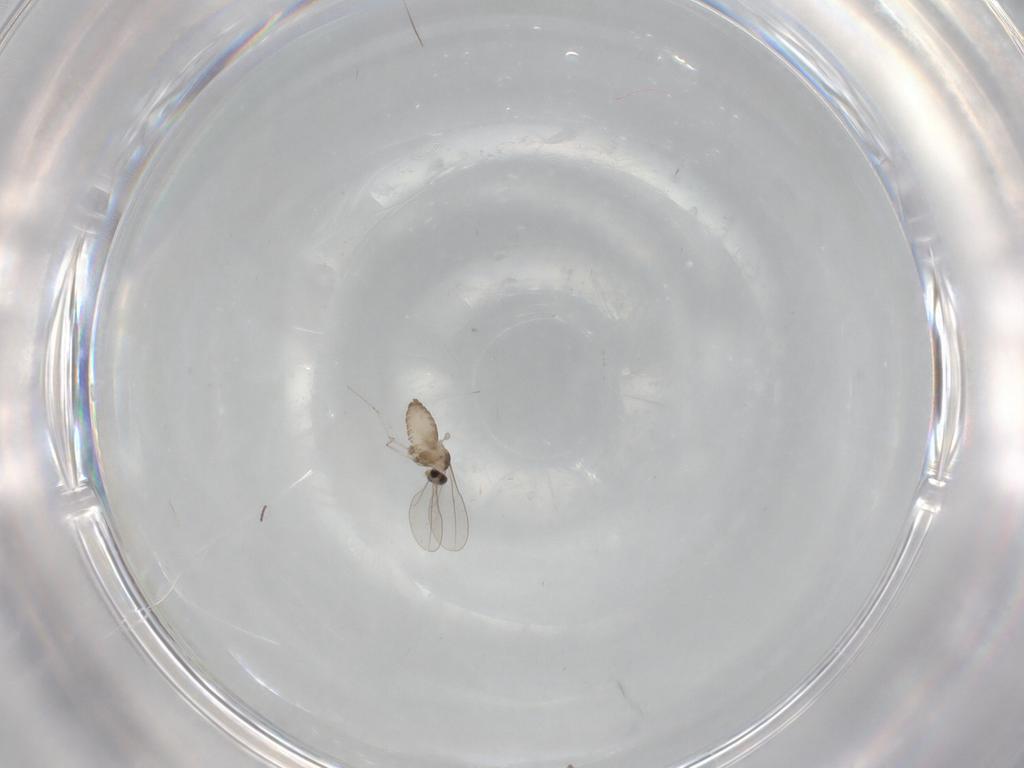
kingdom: Animalia
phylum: Arthropoda
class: Insecta
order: Diptera
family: Cecidomyiidae
